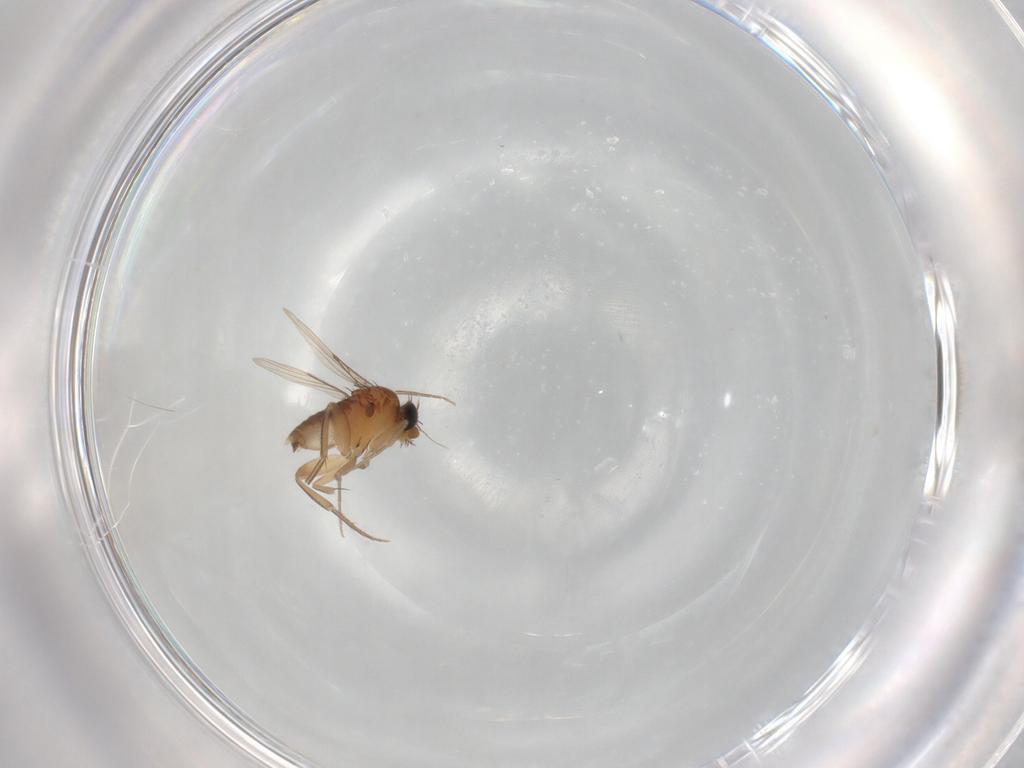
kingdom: Animalia
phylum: Arthropoda
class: Insecta
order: Diptera
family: Phoridae
